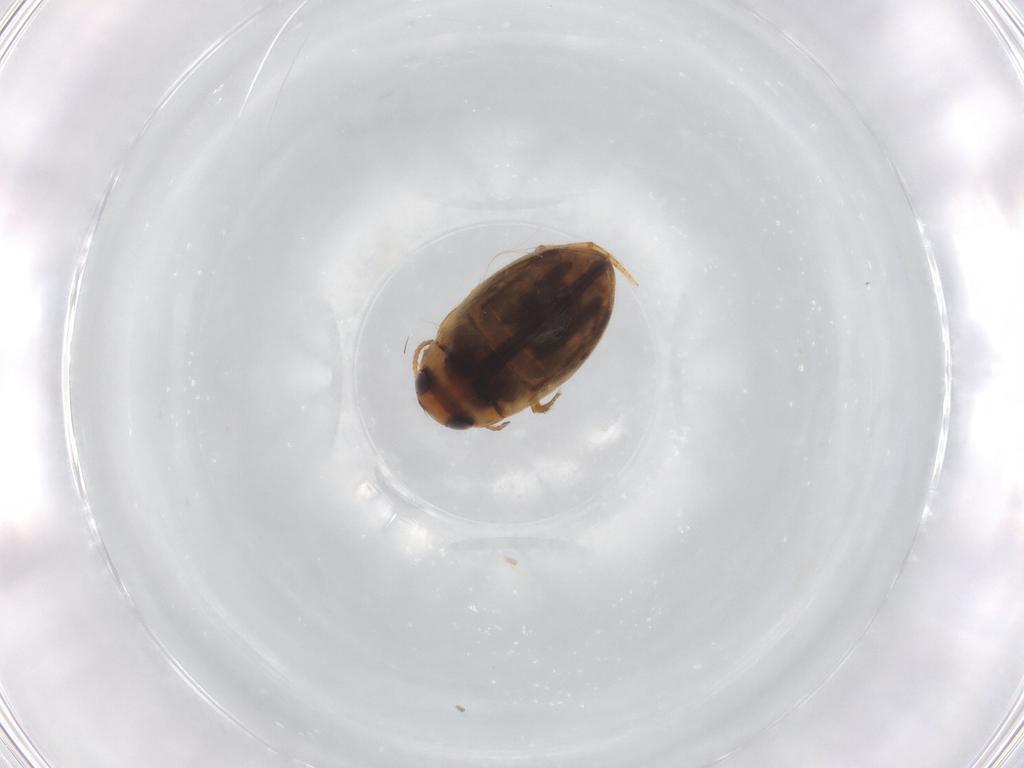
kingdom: Animalia
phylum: Arthropoda
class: Insecta
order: Coleoptera
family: Dytiscidae
